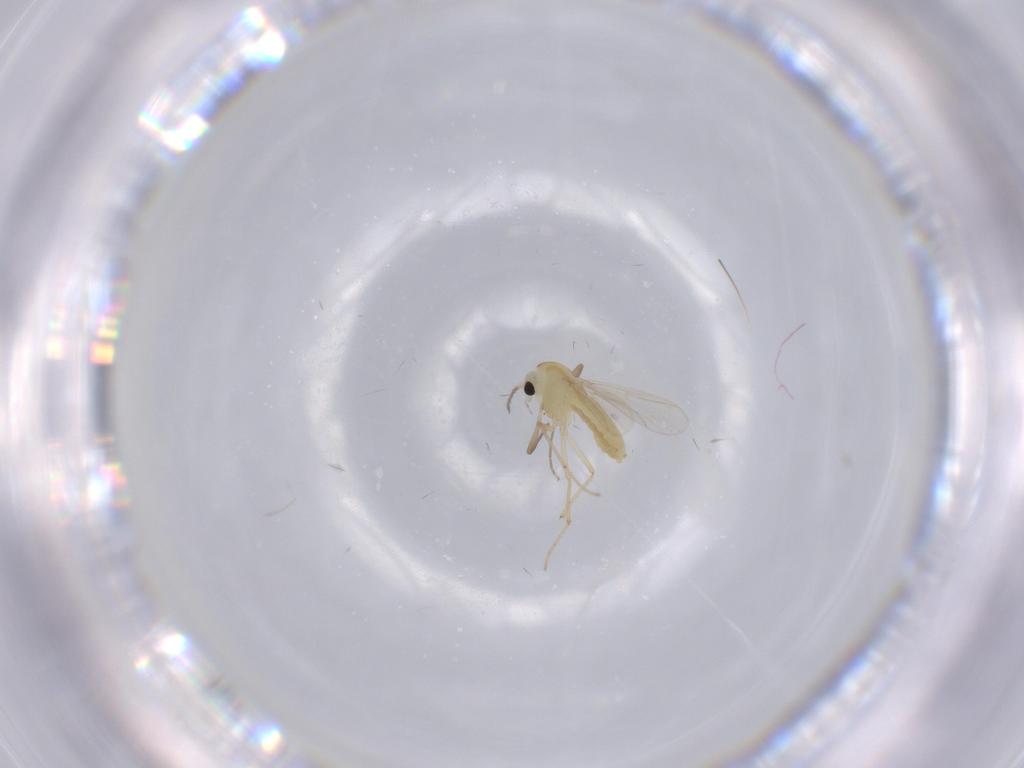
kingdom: Animalia
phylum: Arthropoda
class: Insecta
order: Diptera
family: Chironomidae
